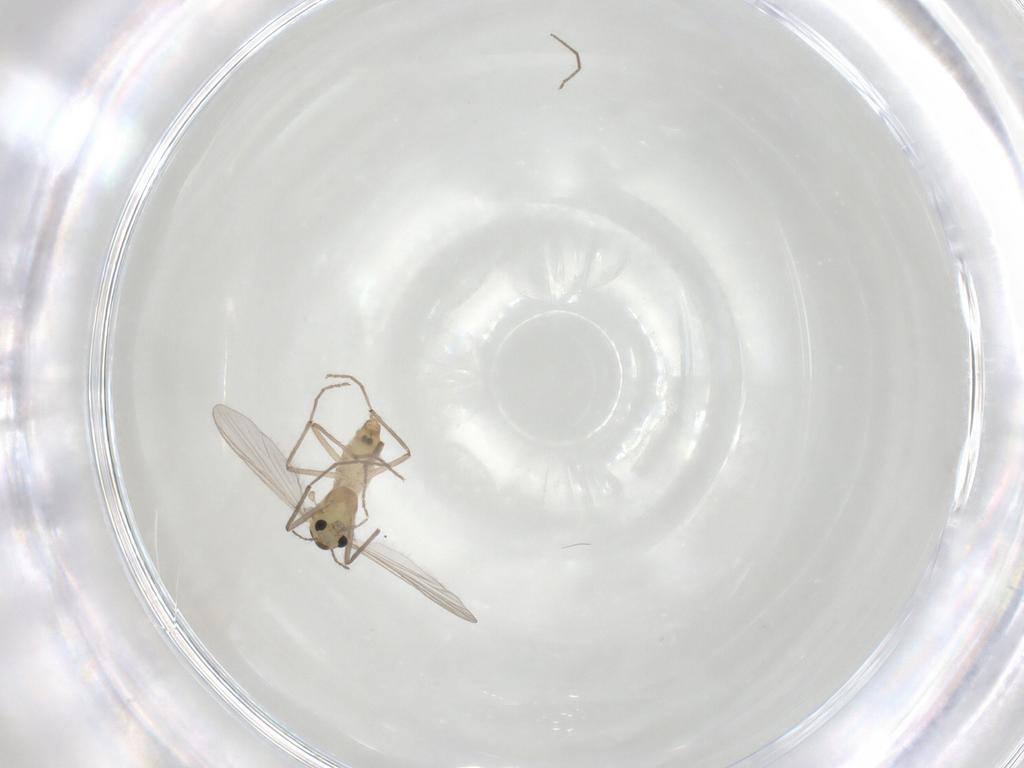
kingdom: Animalia
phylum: Arthropoda
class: Insecta
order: Diptera
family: Chironomidae
